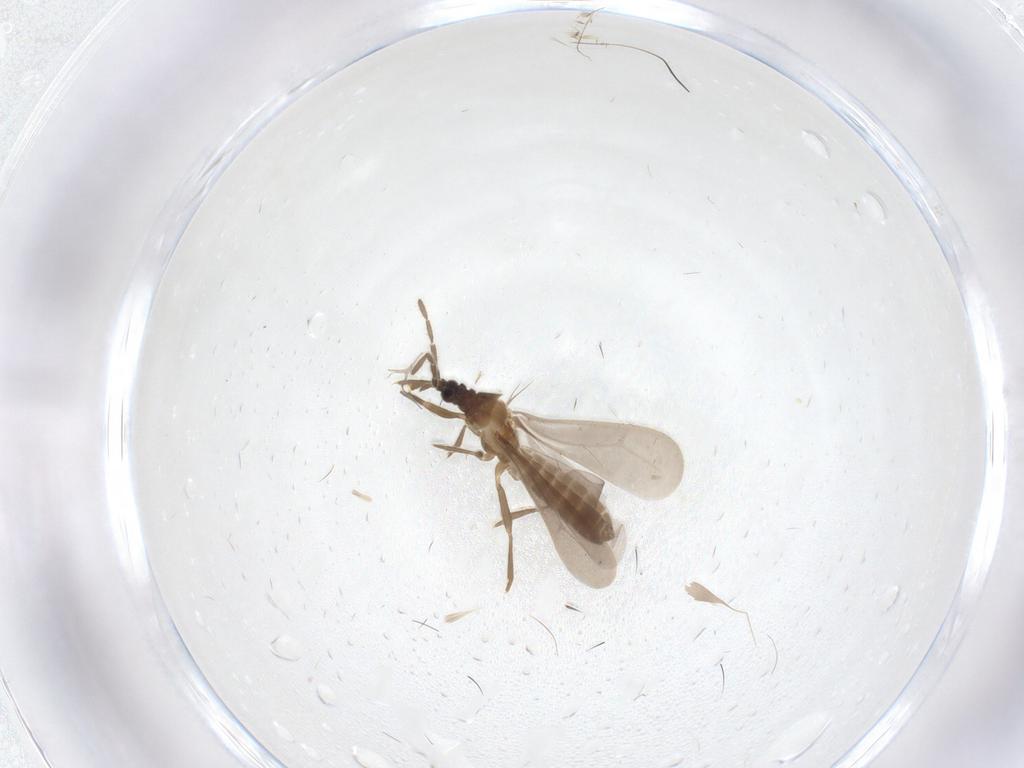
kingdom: Animalia
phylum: Arthropoda
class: Insecta
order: Hemiptera
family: Enicocephalidae
